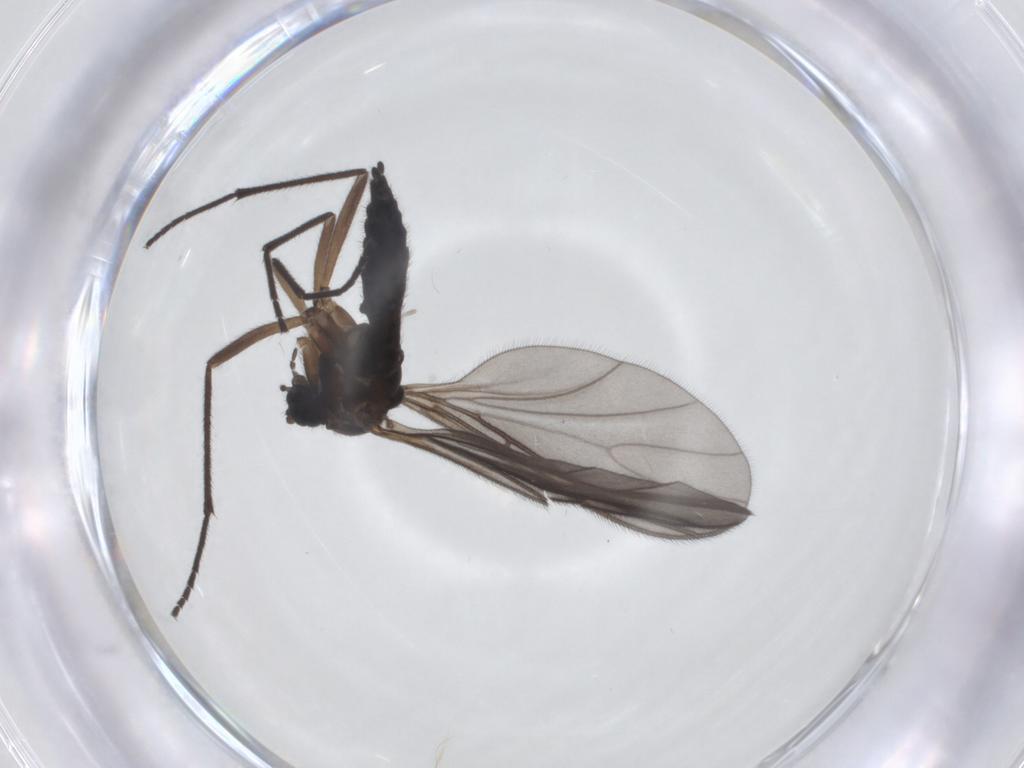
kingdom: Animalia
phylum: Arthropoda
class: Insecta
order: Diptera
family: Sciaridae
